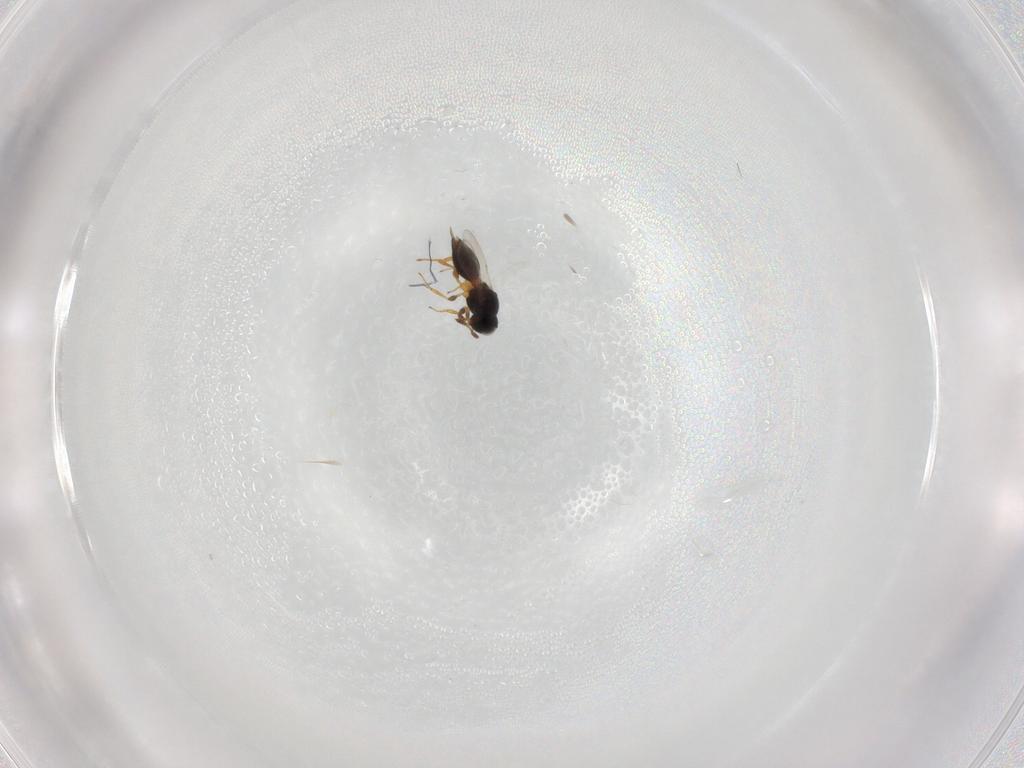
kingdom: Animalia
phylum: Arthropoda
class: Insecta
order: Hymenoptera
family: Platygastridae
